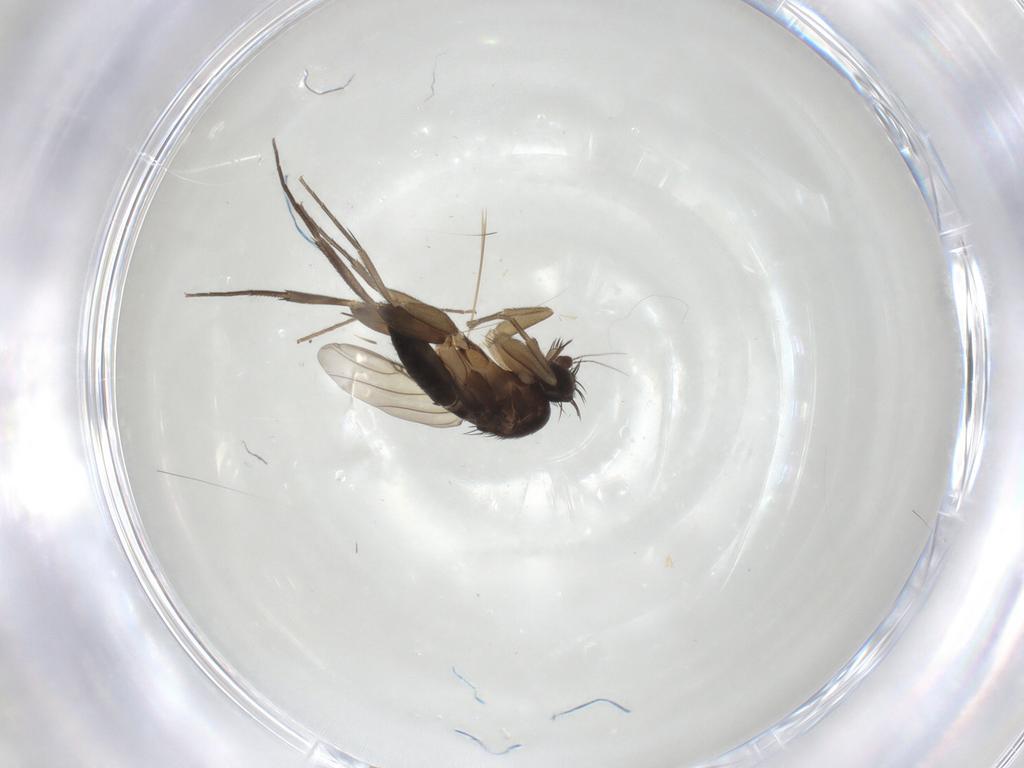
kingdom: Animalia
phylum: Arthropoda
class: Insecta
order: Diptera
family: Phoridae
